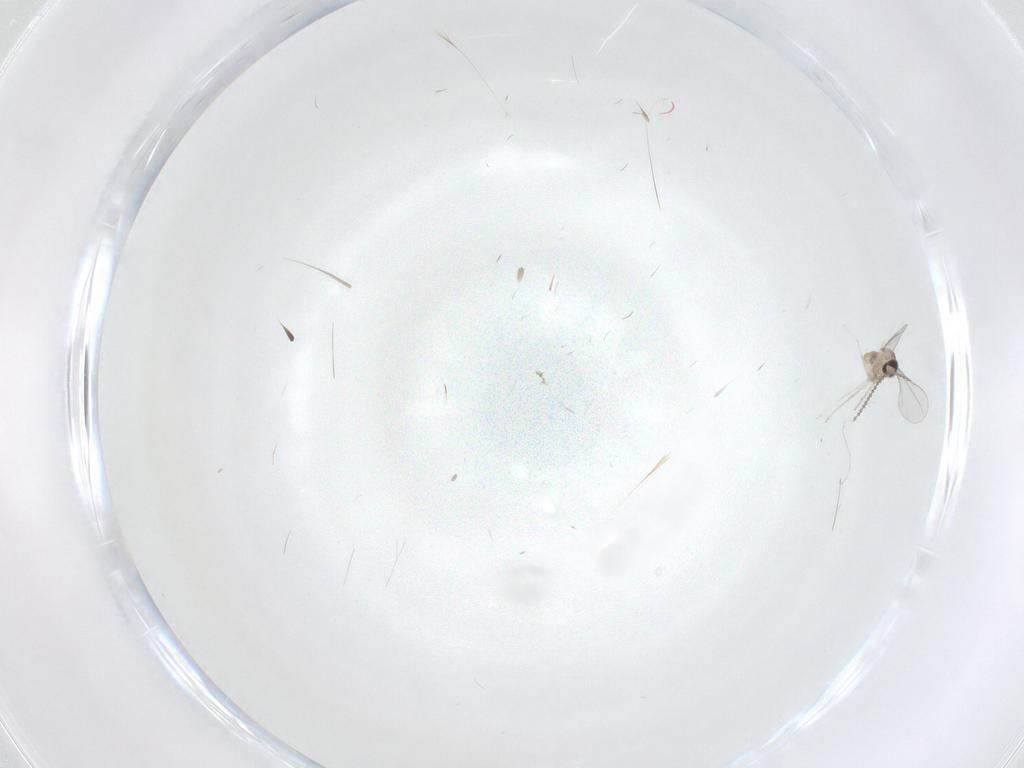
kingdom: Animalia
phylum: Arthropoda
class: Insecta
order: Diptera
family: Cecidomyiidae
